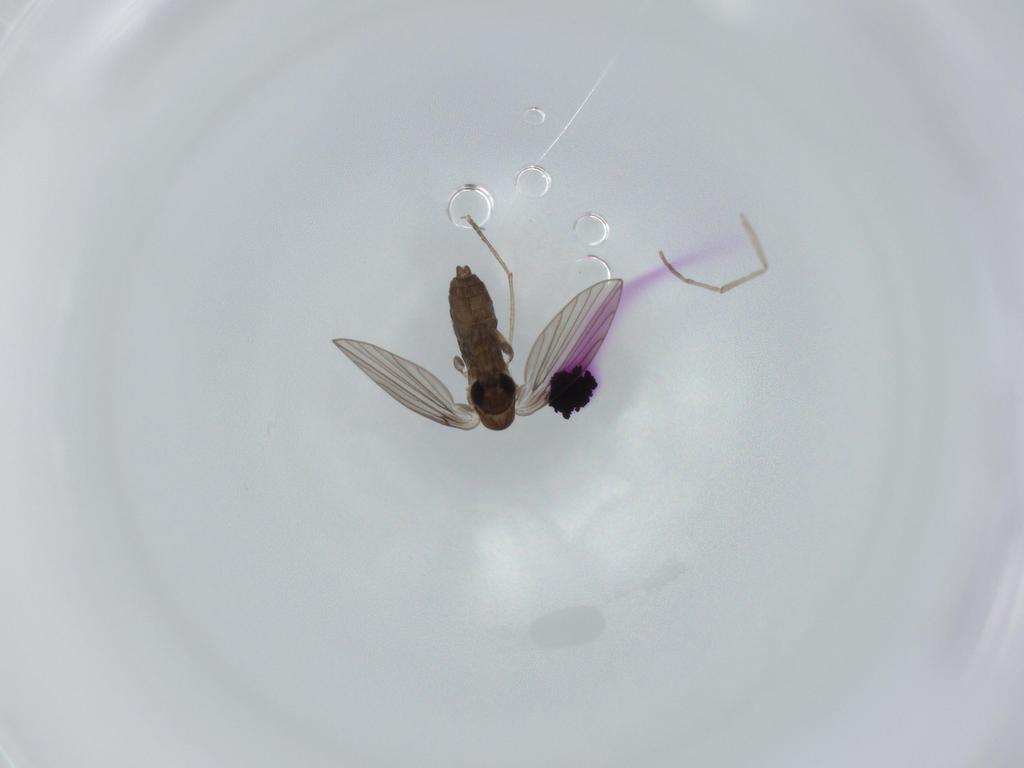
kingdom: Animalia
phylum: Arthropoda
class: Insecta
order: Diptera
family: Psychodidae
